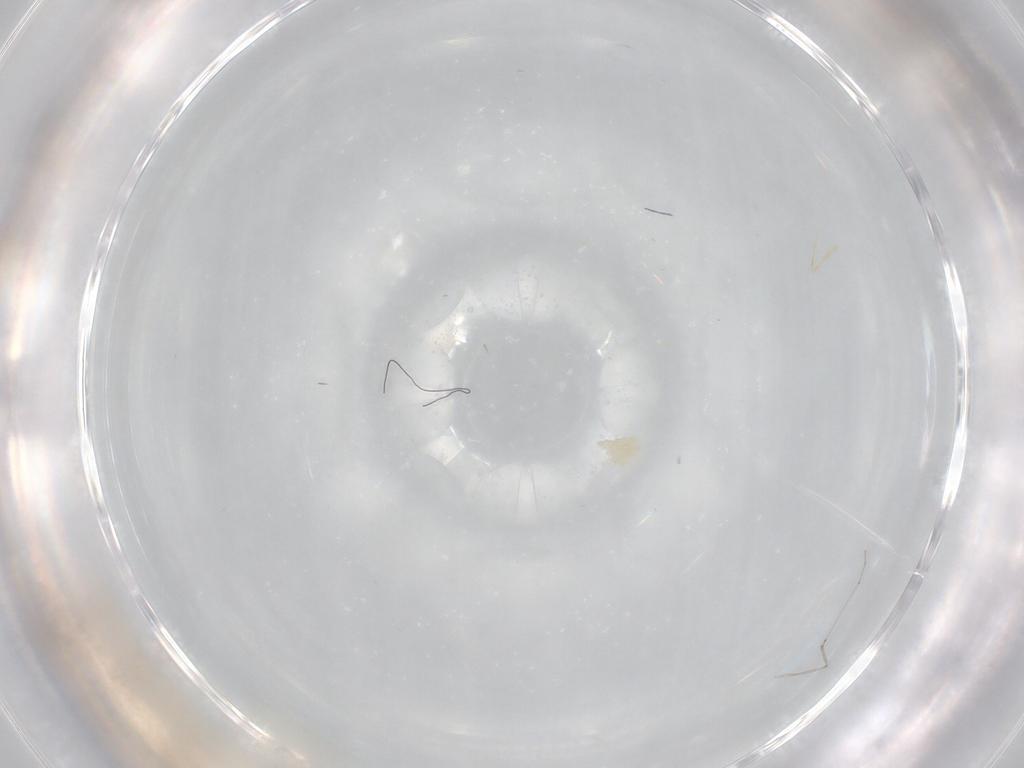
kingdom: Animalia
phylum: Arthropoda
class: Insecta
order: Diptera
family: Cecidomyiidae
